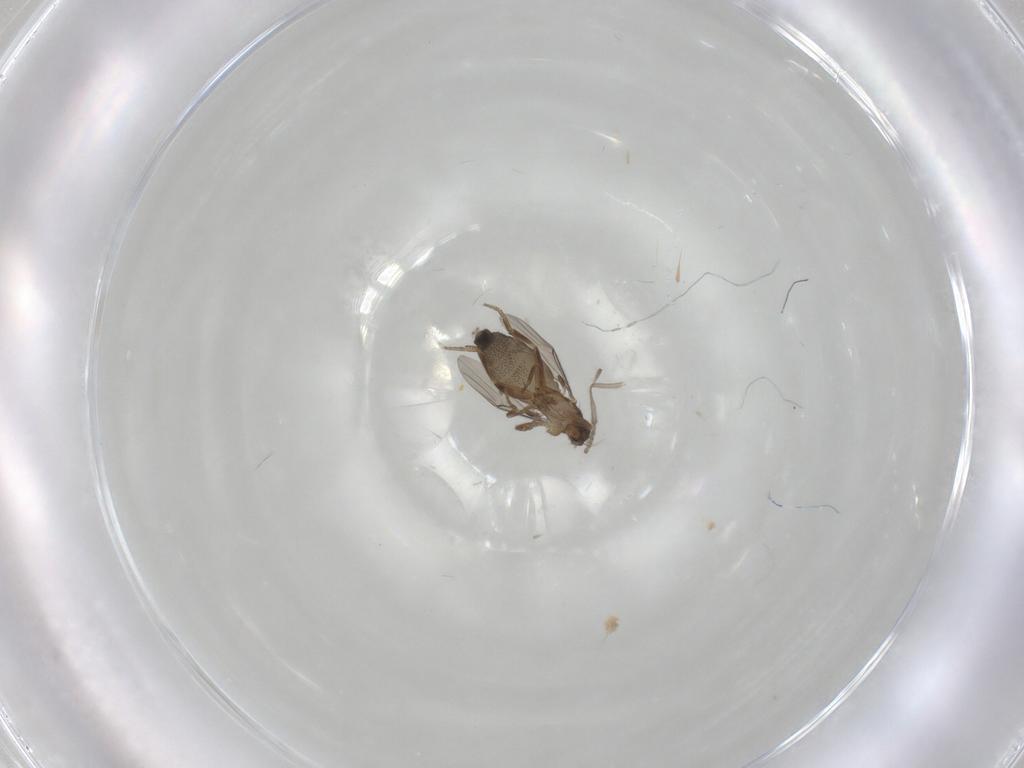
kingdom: Animalia
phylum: Arthropoda
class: Insecta
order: Diptera
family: Phoridae
